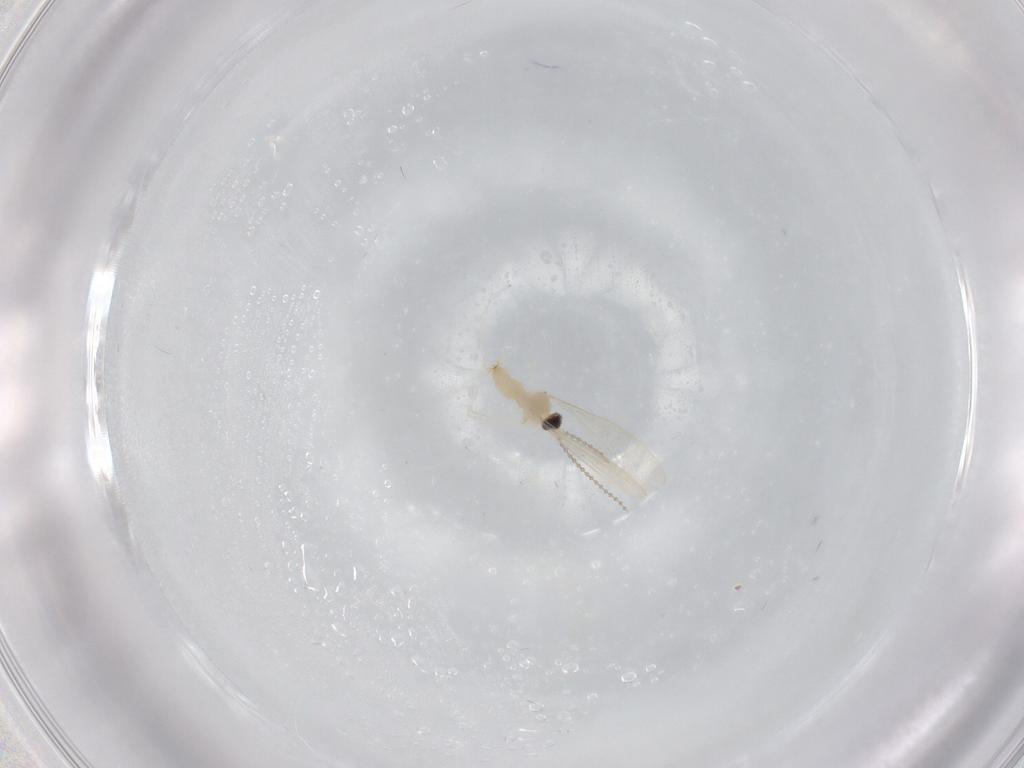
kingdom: Animalia
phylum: Arthropoda
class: Insecta
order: Diptera
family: Cecidomyiidae
